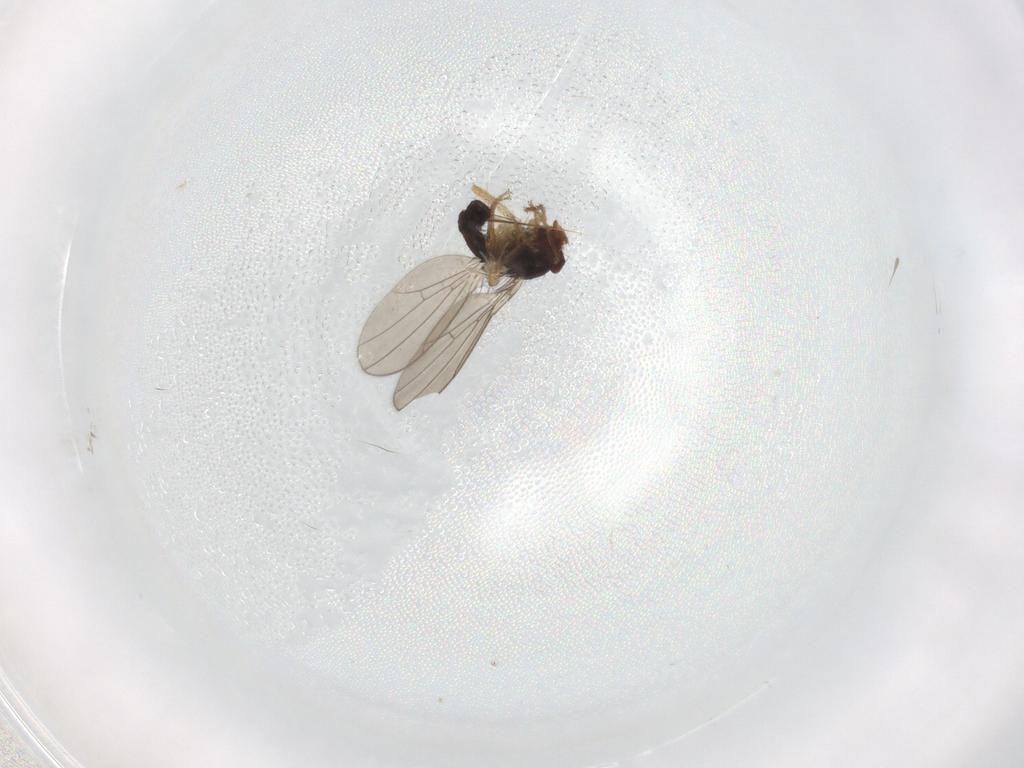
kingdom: Animalia
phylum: Arthropoda
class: Insecta
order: Diptera
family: Drosophilidae
